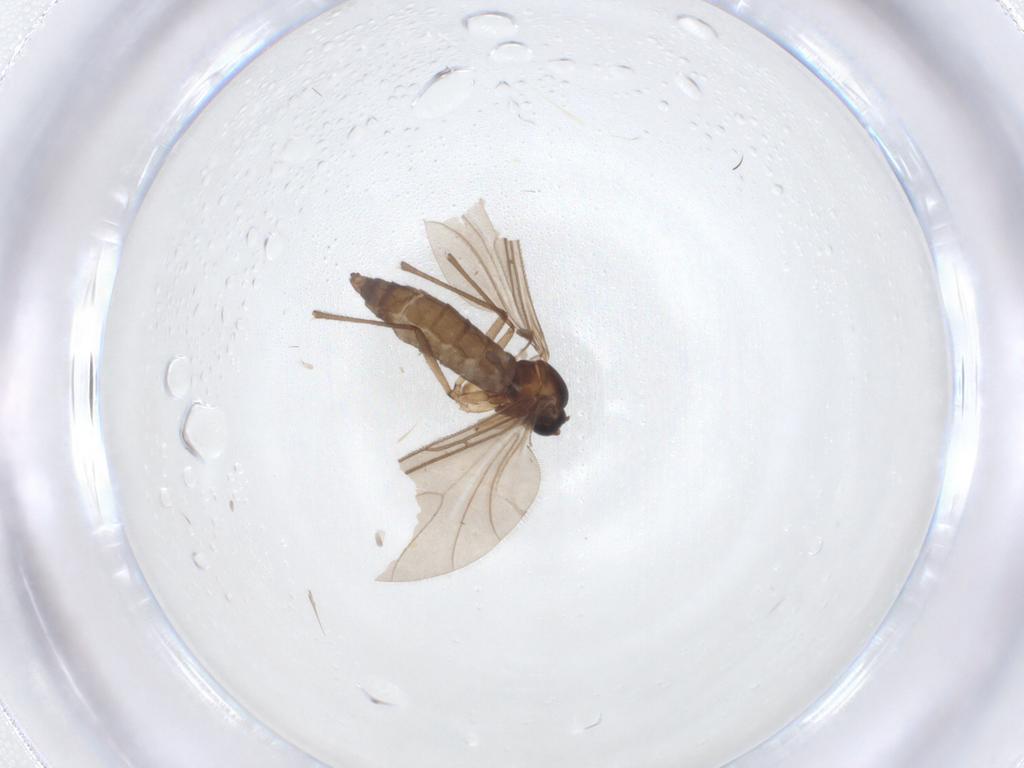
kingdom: Animalia
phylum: Arthropoda
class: Insecta
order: Diptera
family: Sciaridae
